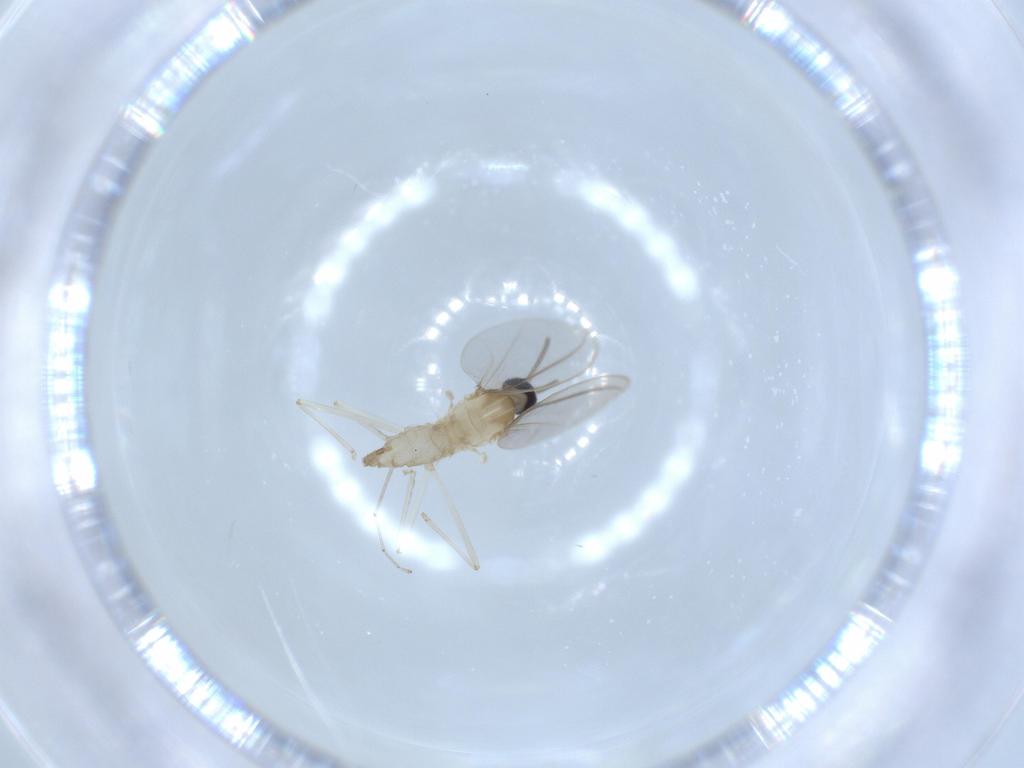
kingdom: Animalia
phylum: Arthropoda
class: Insecta
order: Diptera
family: Cecidomyiidae
